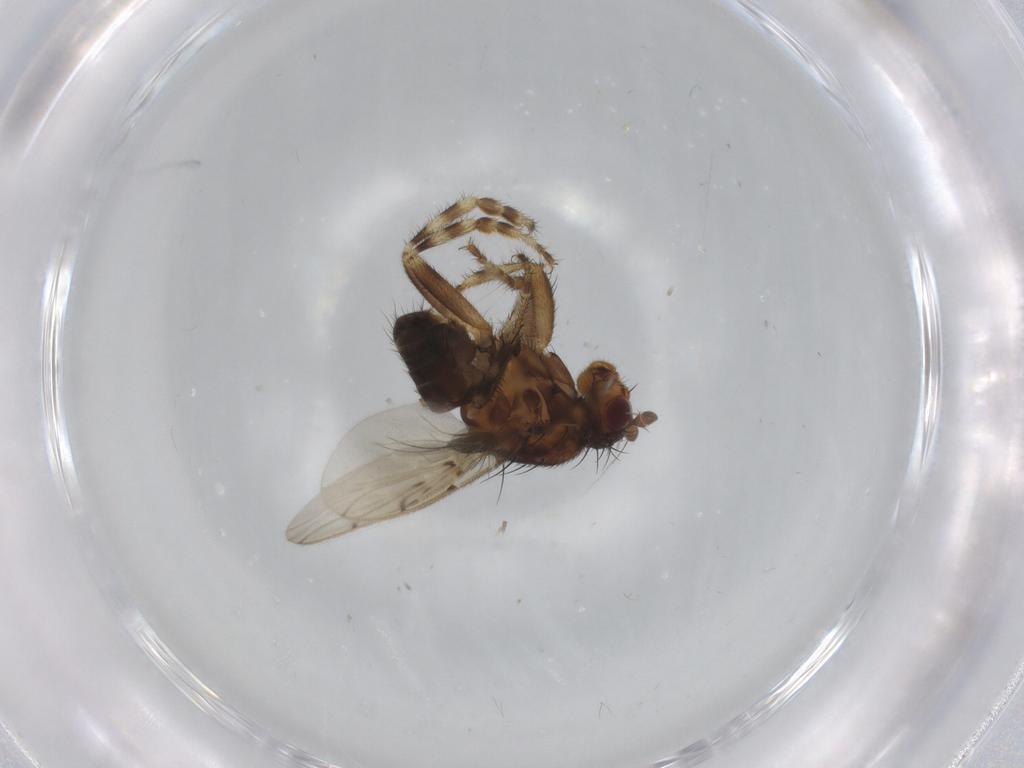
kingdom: Animalia
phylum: Arthropoda
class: Insecta
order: Diptera
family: Sphaeroceridae
